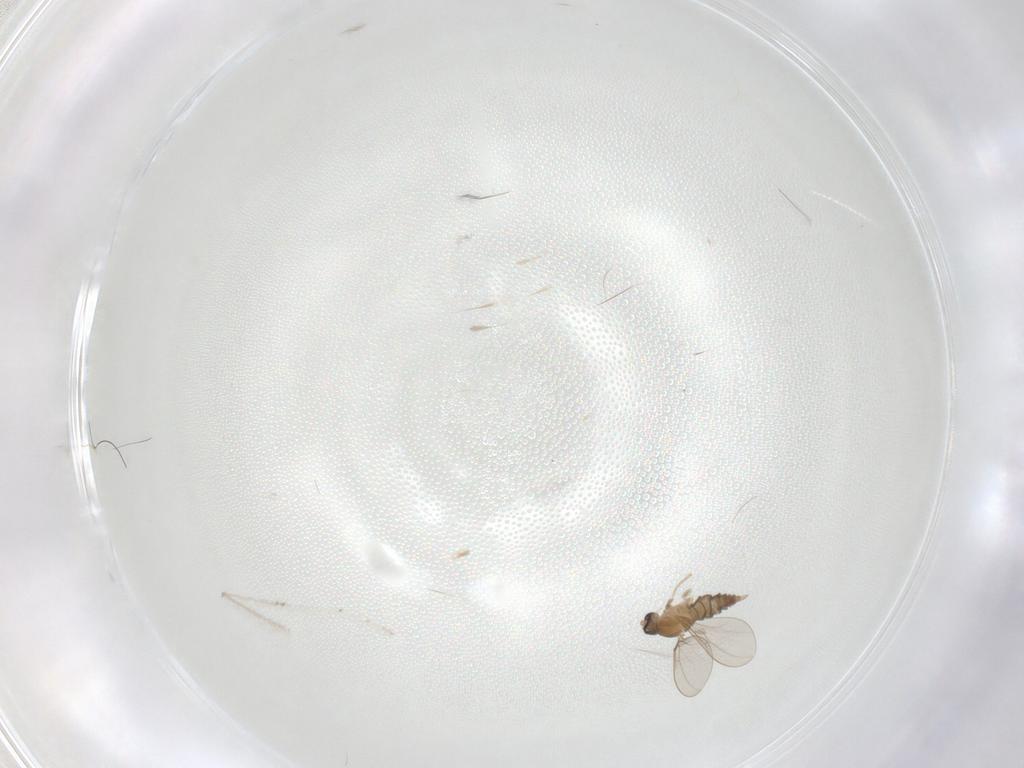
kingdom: Animalia
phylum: Arthropoda
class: Insecta
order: Diptera
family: Cecidomyiidae
